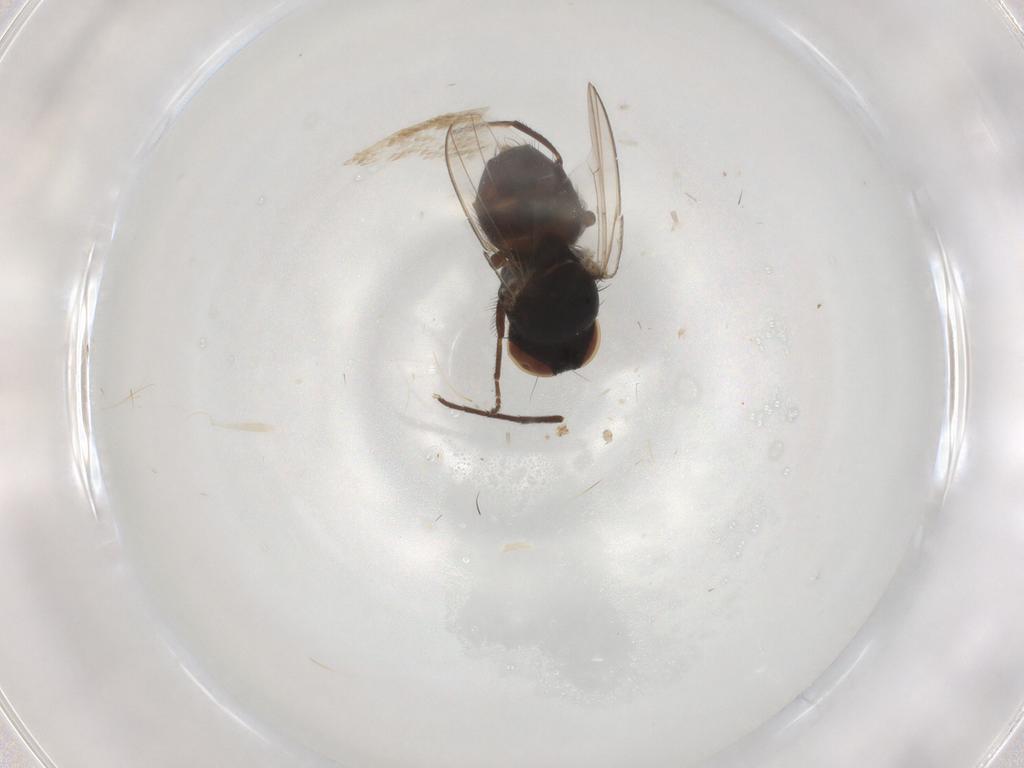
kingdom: Animalia
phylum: Arthropoda
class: Insecta
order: Diptera
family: Milichiidae
